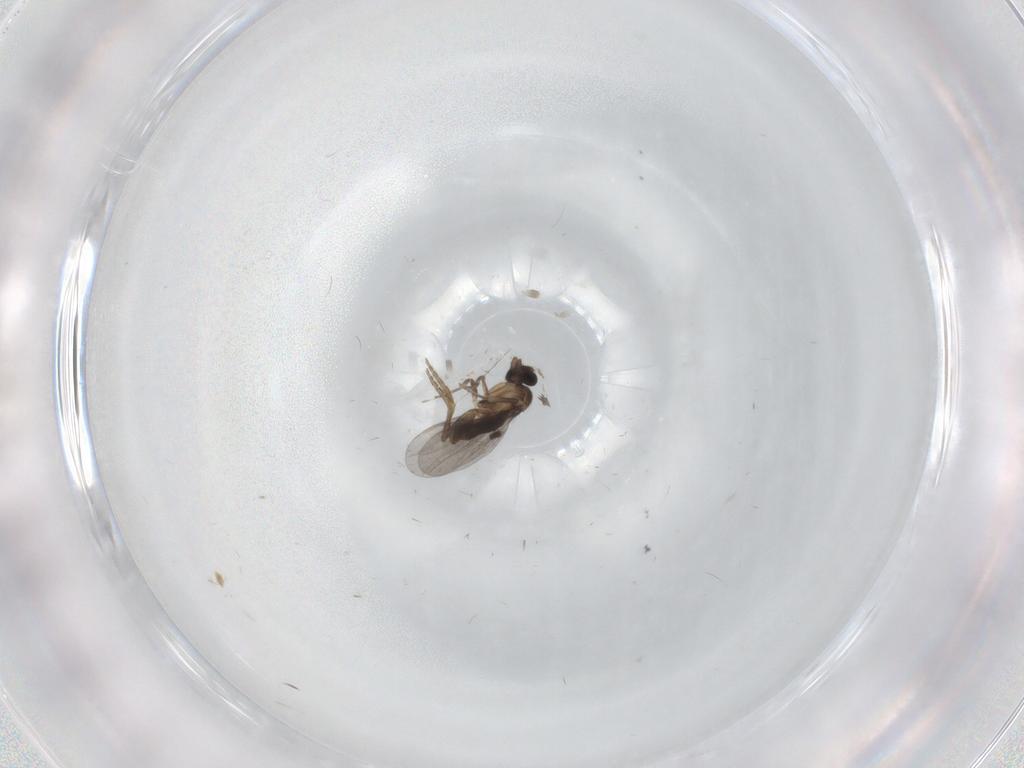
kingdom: Animalia
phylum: Arthropoda
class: Insecta
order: Diptera
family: Phoridae
